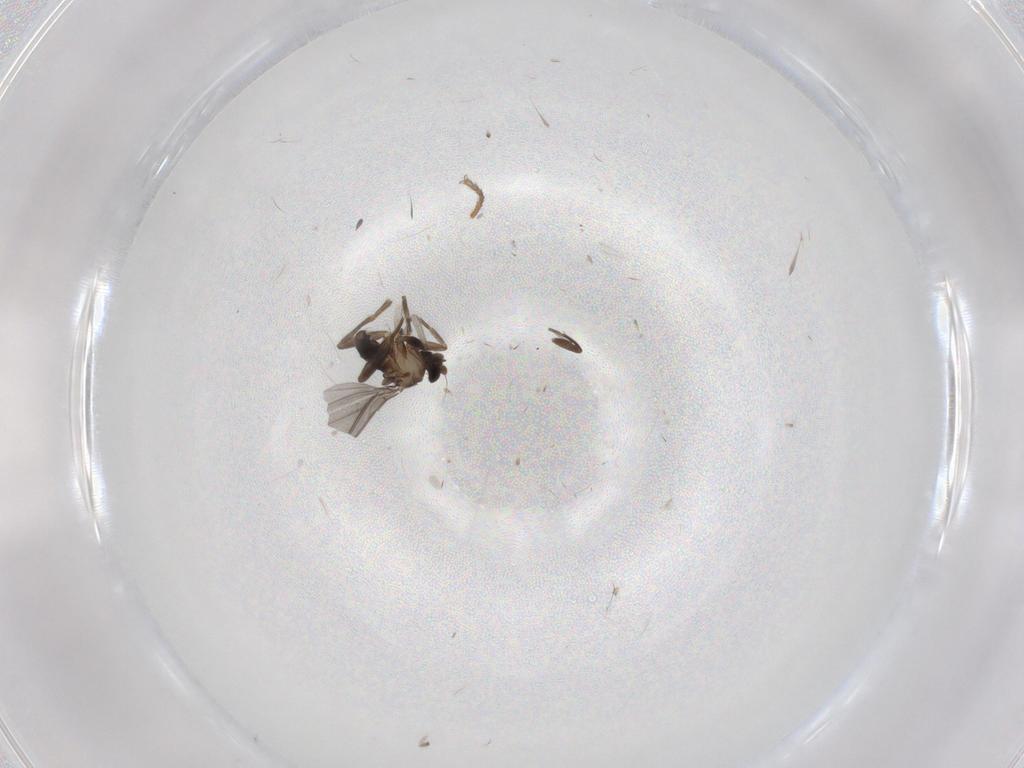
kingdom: Animalia
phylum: Arthropoda
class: Insecta
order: Diptera
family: Phoridae
